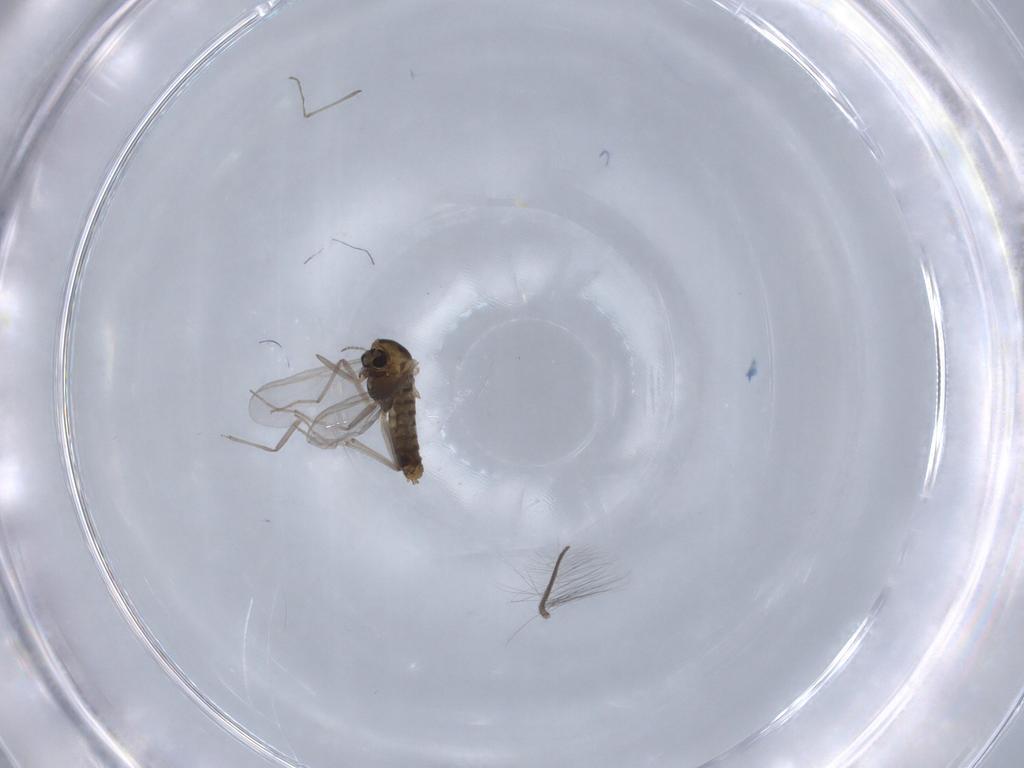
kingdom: Animalia
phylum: Arthropoda
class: Insecta
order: Diptera
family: Chironomidae
